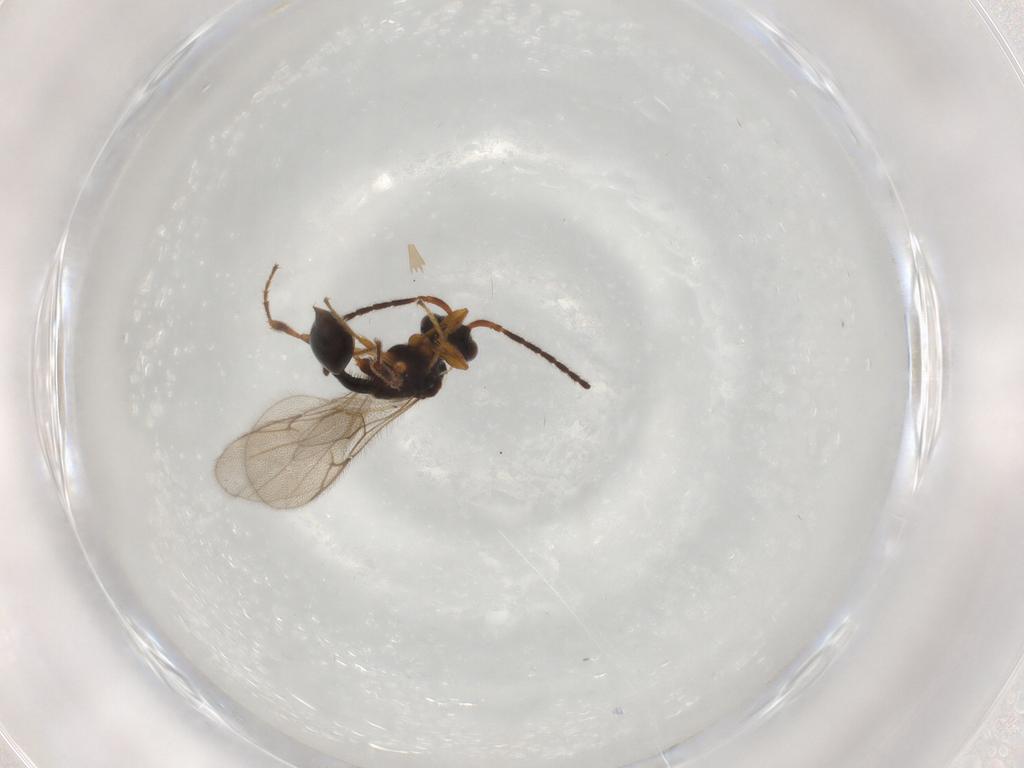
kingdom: Animalia
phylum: Arthropoda
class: Insecta
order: Hymenoptera
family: Diapriidae
